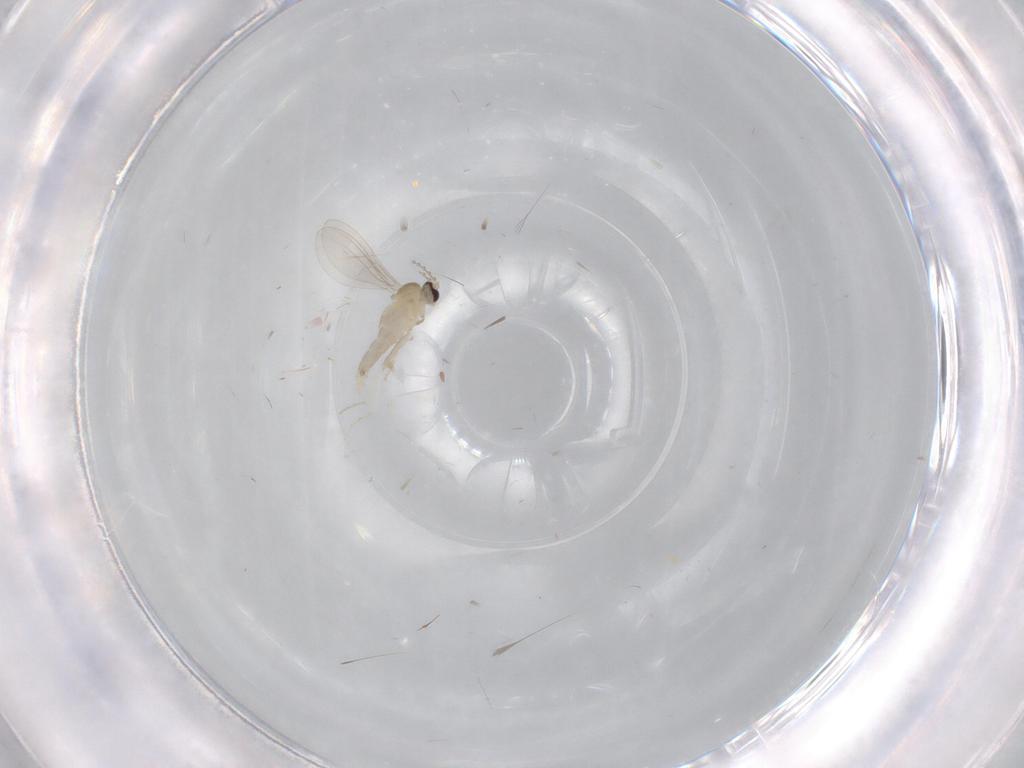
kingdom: Animalia
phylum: Arthropoda
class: Insecta
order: Diptera
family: Cecidomyiidae
